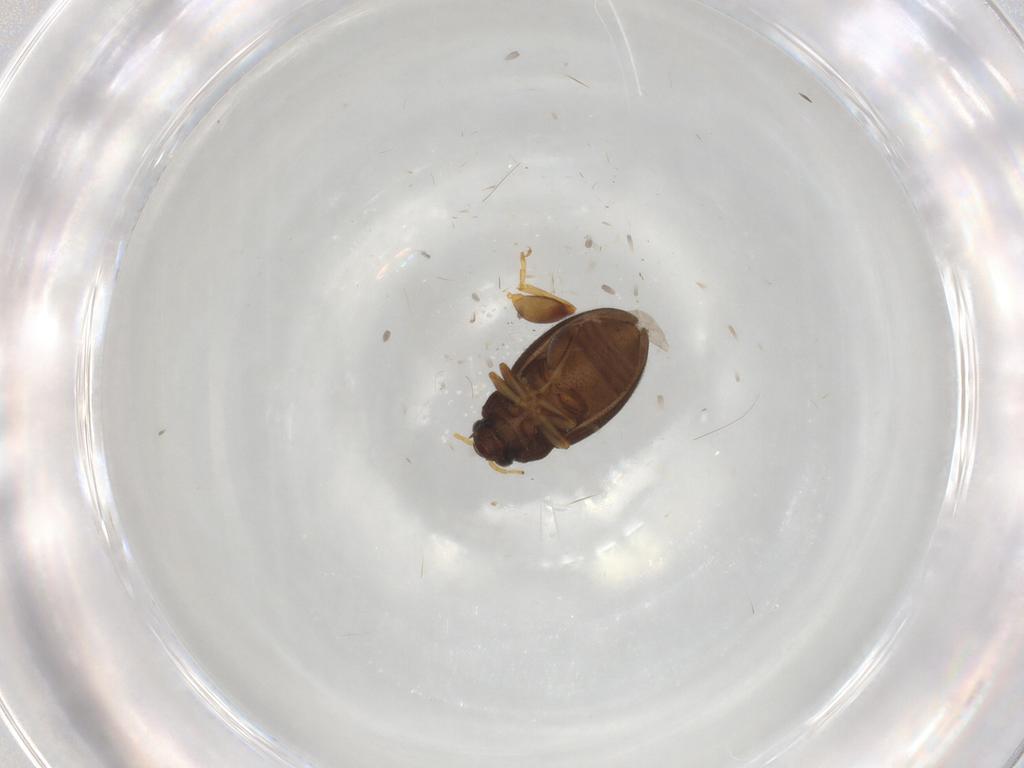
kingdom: Animalia
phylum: Arthropoda
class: Insecta
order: Coleoptera
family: Chrysomelidae
